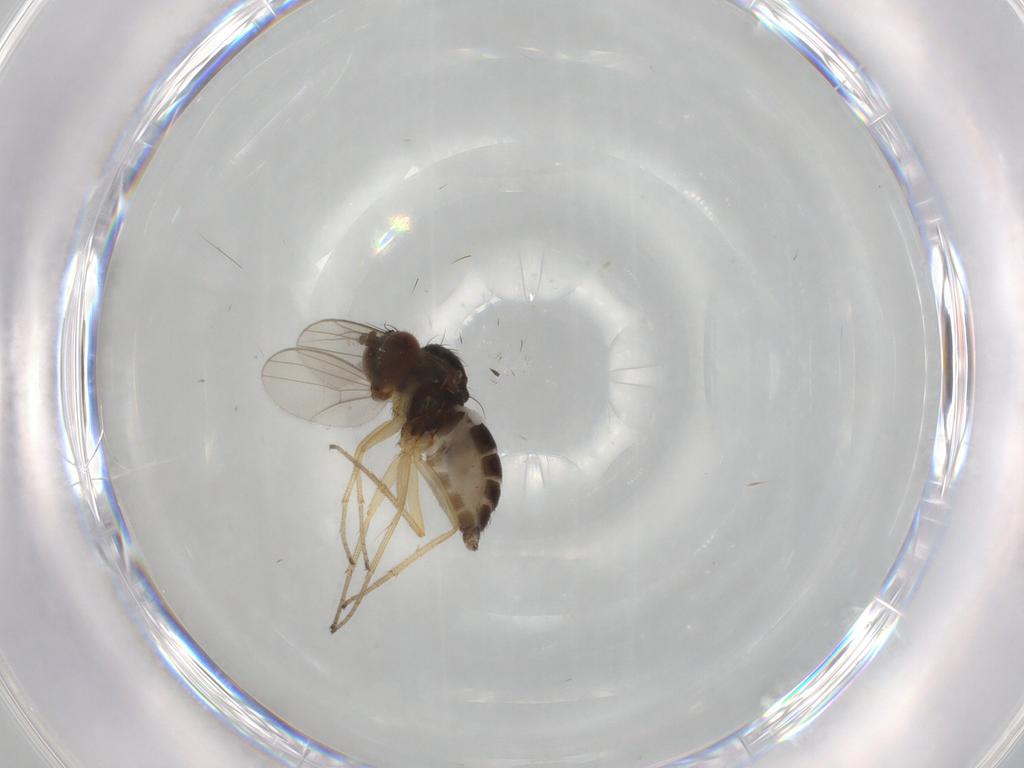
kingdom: Animalia
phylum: Arthropoda
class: Insecta
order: Diptera
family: Dolichopodidae
